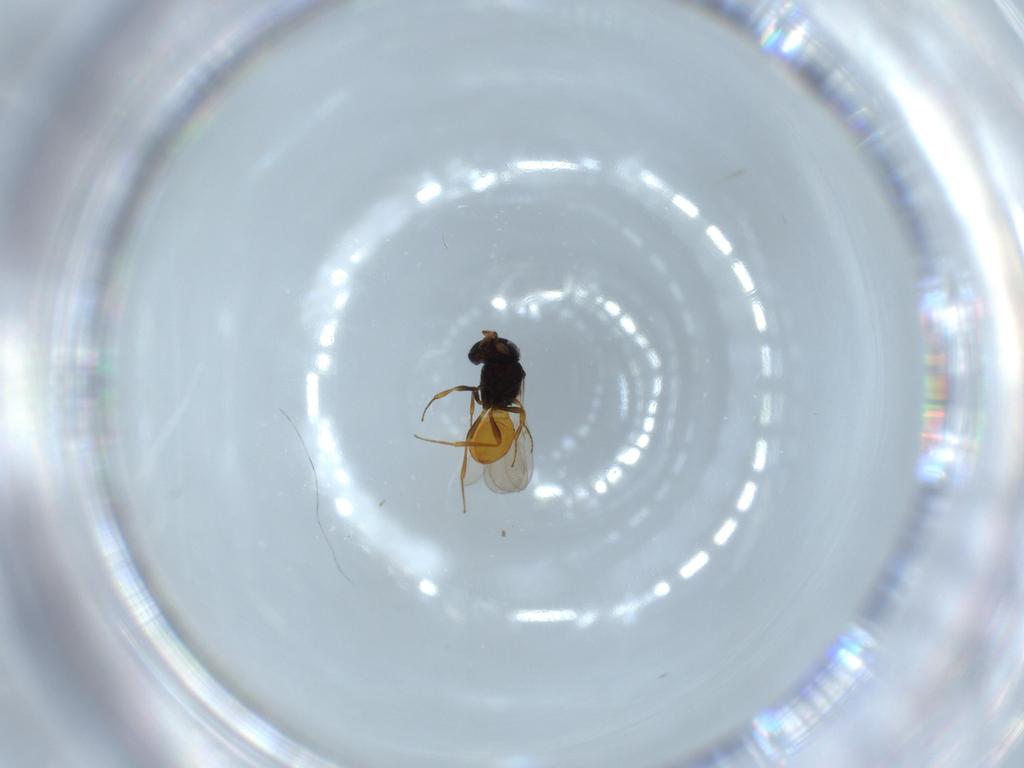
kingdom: Animalia
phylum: Arthropoda
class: Insecta
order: Hymenoptera
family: Scelionidae
